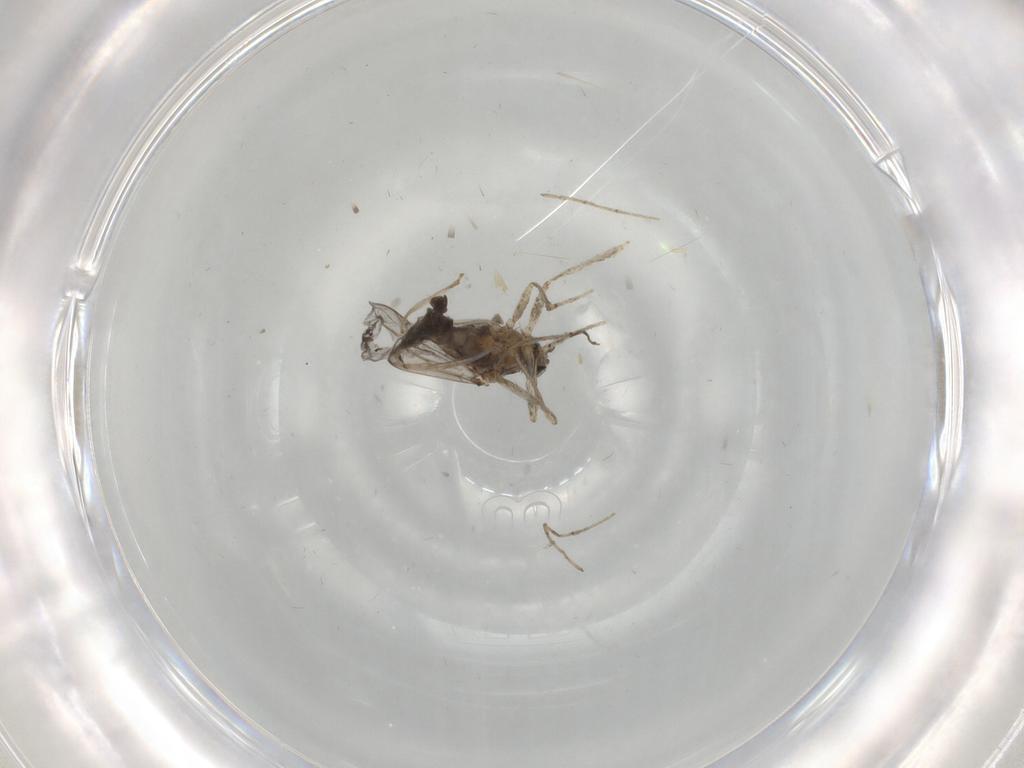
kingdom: Animalia
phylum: Arthropoda
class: Insecta
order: Diptera
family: Cecidomyiidae
